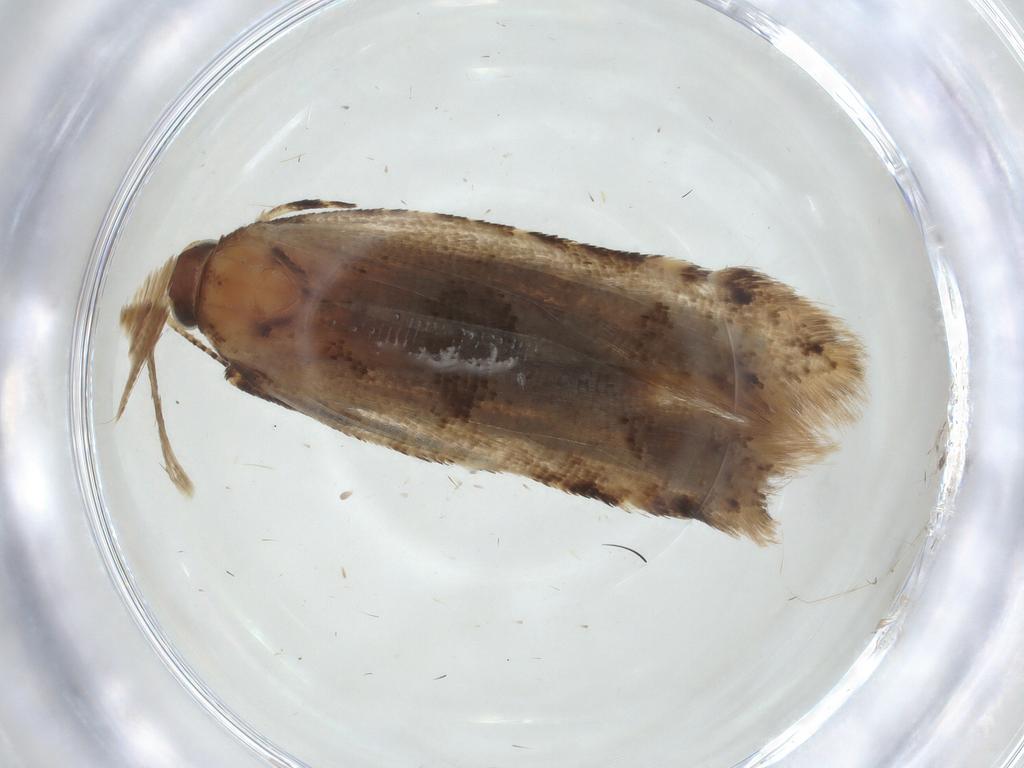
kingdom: Animalia
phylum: Arthropoda
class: Insecta
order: Lepidoptera
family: Gelechiidae
